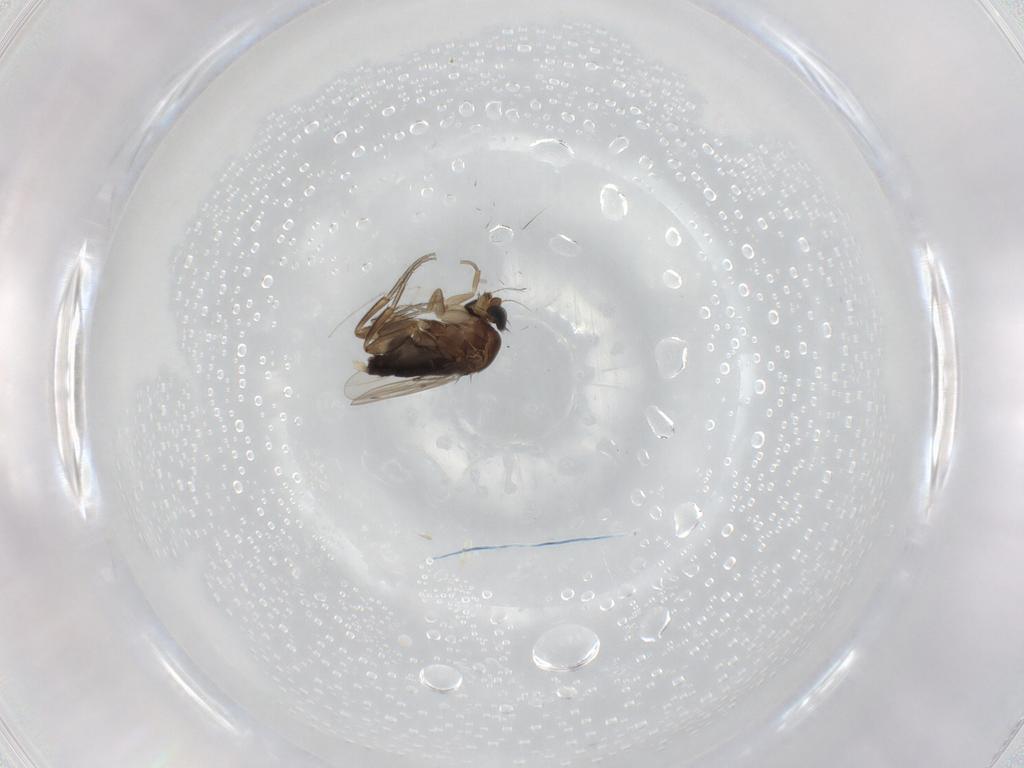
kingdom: Animalia
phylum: Arthropoda
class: Insecta
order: Diptera
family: Phoridae
